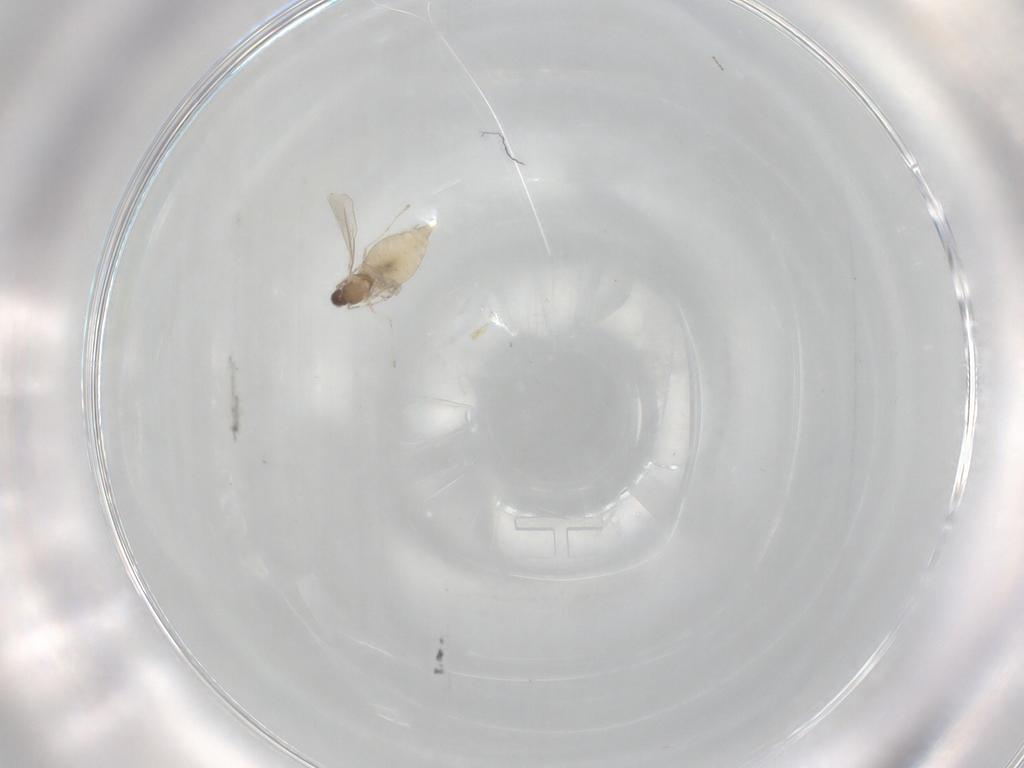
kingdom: Animalia
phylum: Arthropoda
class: Insecta
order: Diptera
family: Cecidomyiidae
